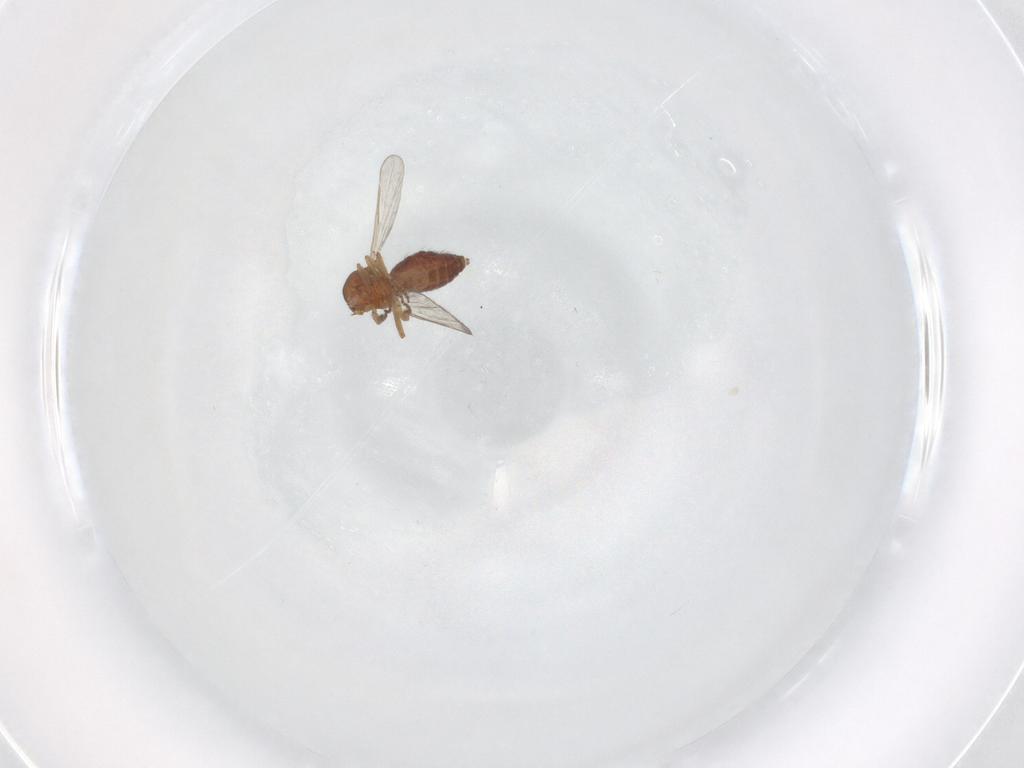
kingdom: Animalia
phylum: Arthropoda
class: Insecta
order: Diptera
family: Ceratopogonidae
